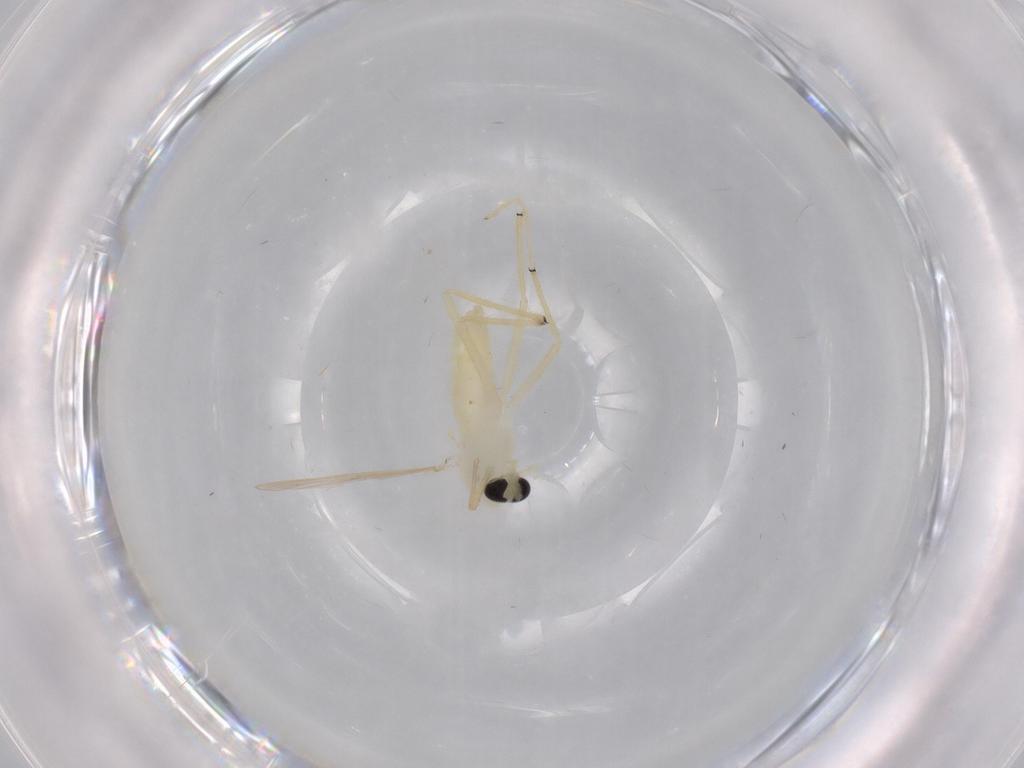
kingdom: Animalia
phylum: Arthropoda
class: Insecta
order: Diptera
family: Chironomidae
